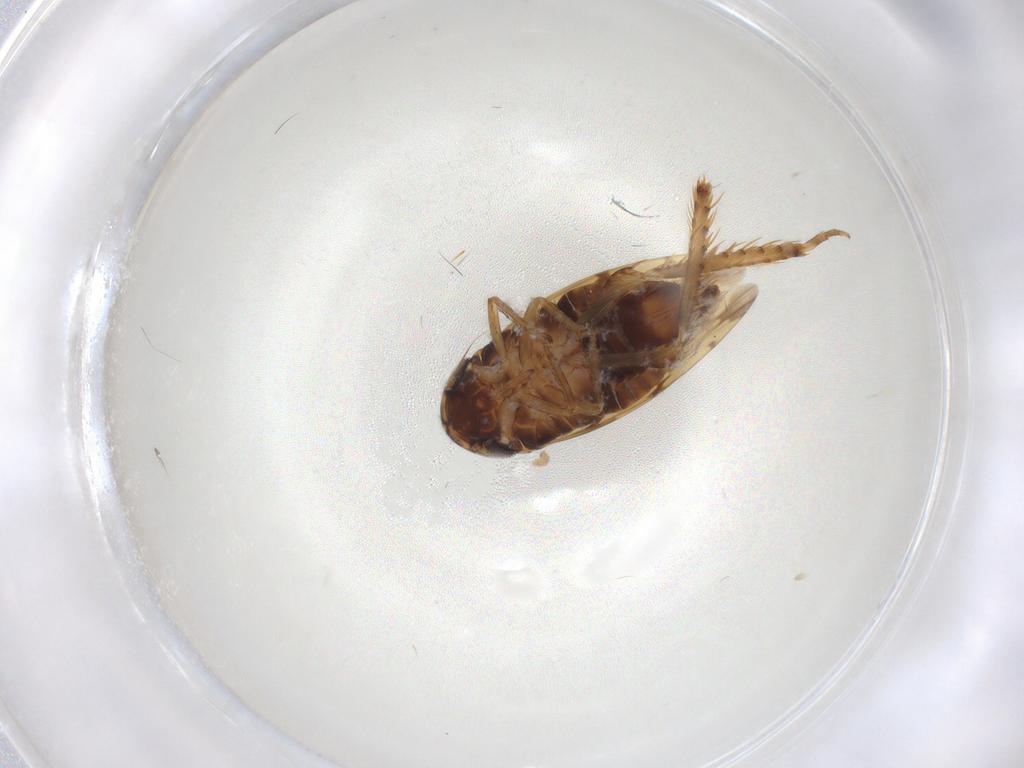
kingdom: Animalia
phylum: Arthropoda
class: Insecta
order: Hemiptera
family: Cicadellidae
